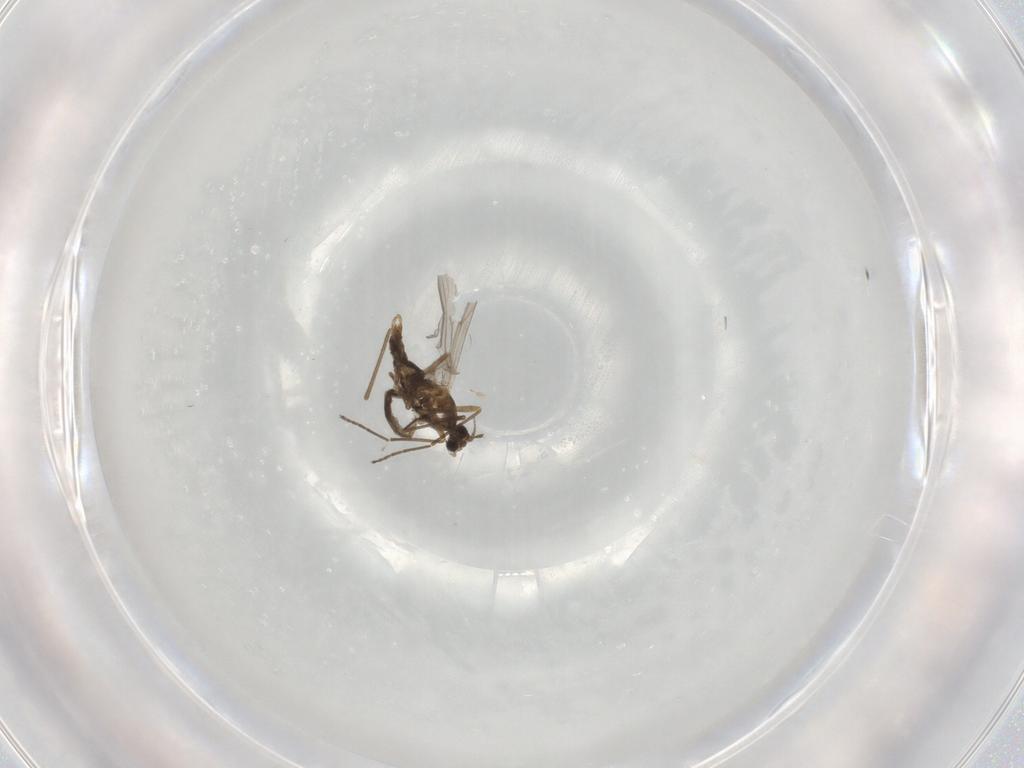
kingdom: Animalia
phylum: Arthropoda
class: Insecta
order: Diptera
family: Cecidomyiidae
